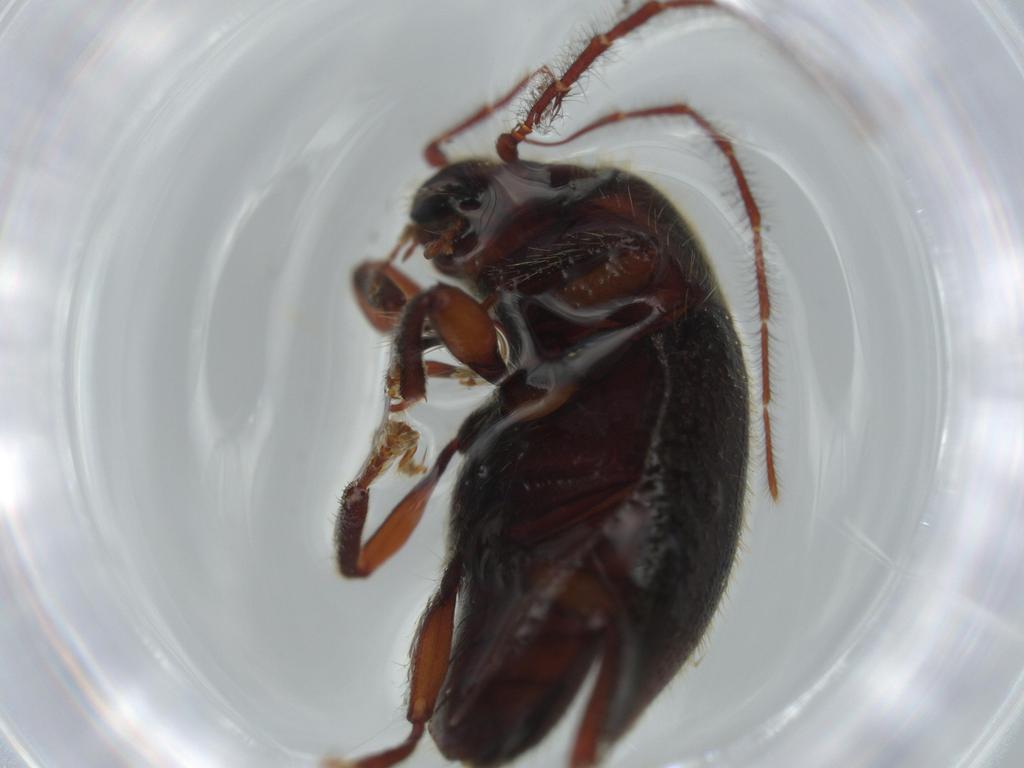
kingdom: Animalia
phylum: Arthropoda
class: Insecta
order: Coleoptera
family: Artematopodidae
